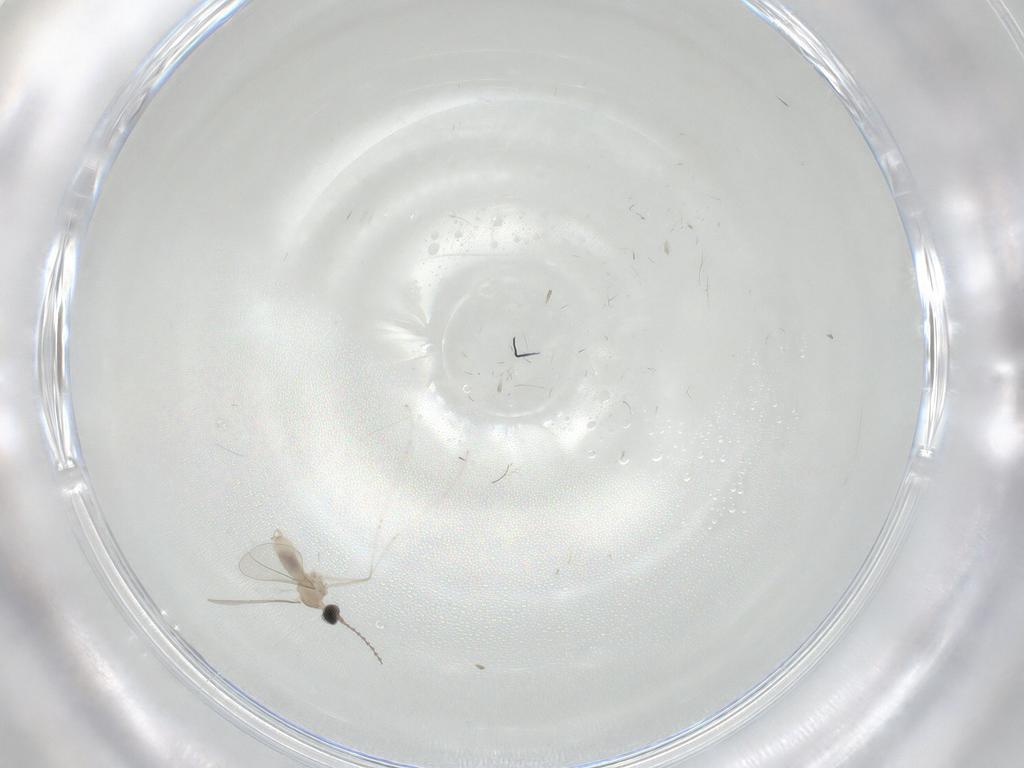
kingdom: Animalia
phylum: Arthropoda
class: Insecta
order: Diptera
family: Cecidomyiidae
